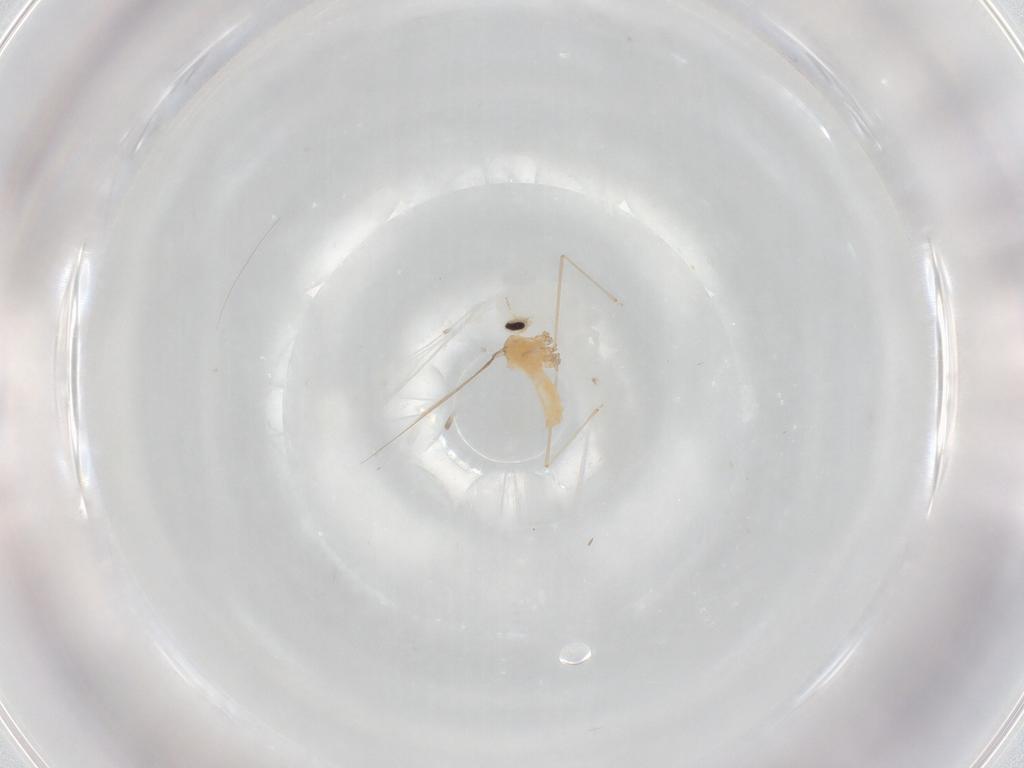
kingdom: Animalia
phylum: Arthropoda
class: Insecta
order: Diptera
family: Cecidomyiidae
